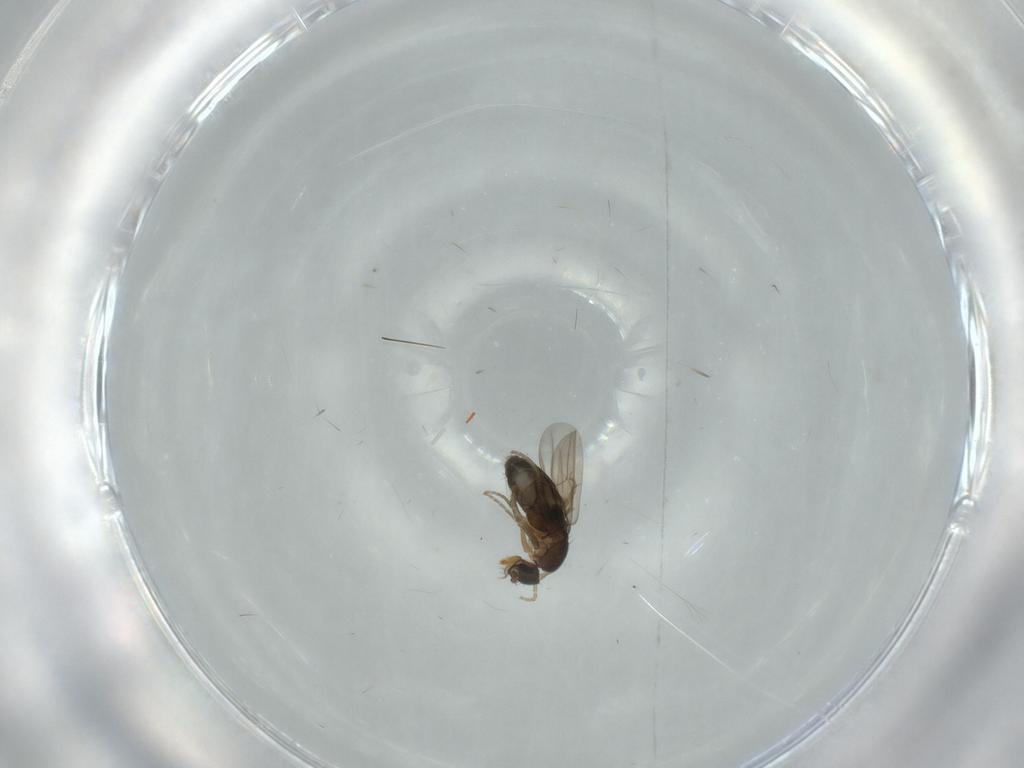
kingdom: Animalia
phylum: Arthropoda
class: Insecta
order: Diptera
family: Phoridae
